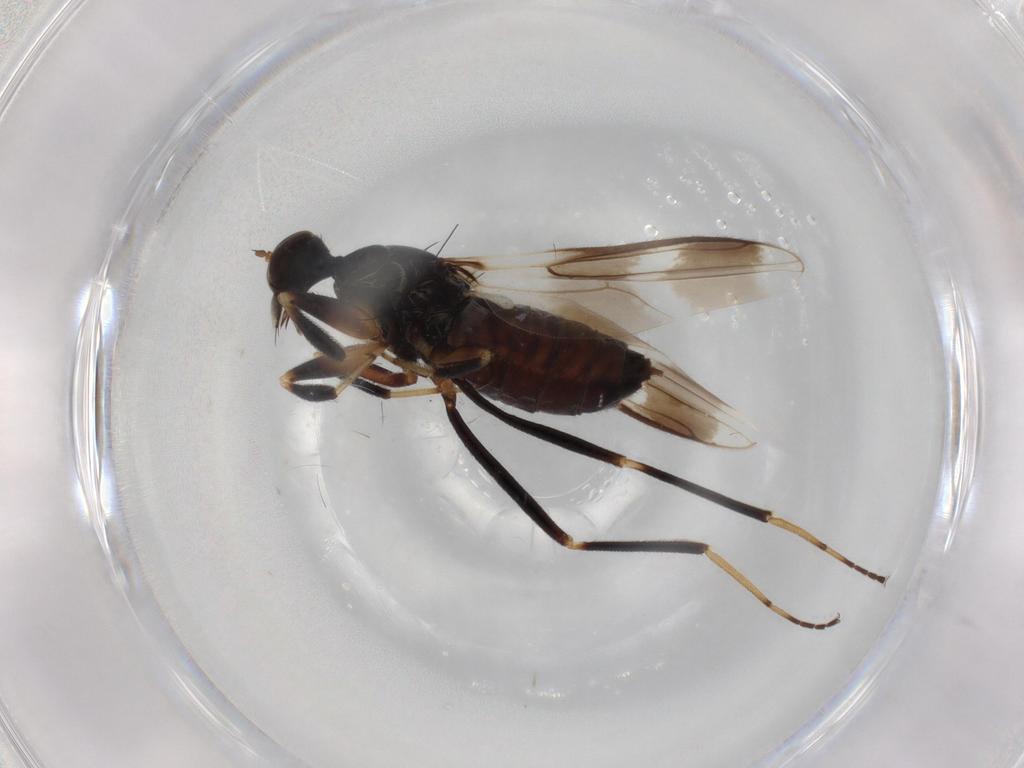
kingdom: Animalia
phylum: Arthropoda
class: Insecta
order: Diptera
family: Hybotidae
